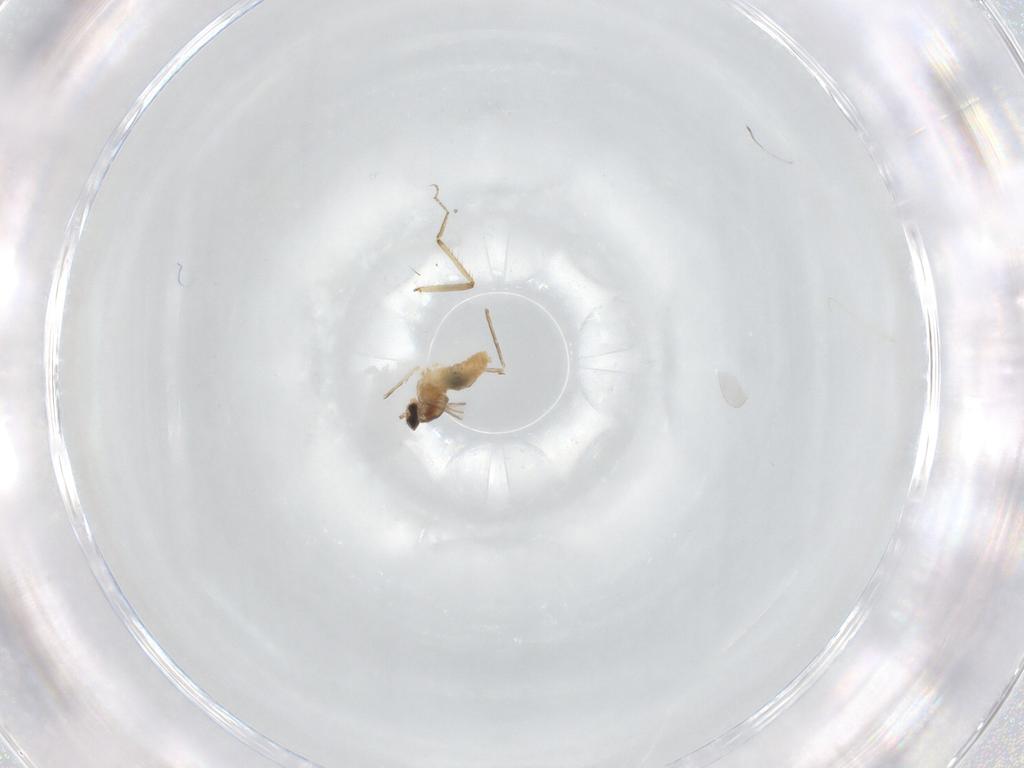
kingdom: Animalia
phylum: Arthropoda
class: Insecta
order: Diptera
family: Cecidomyiidae
